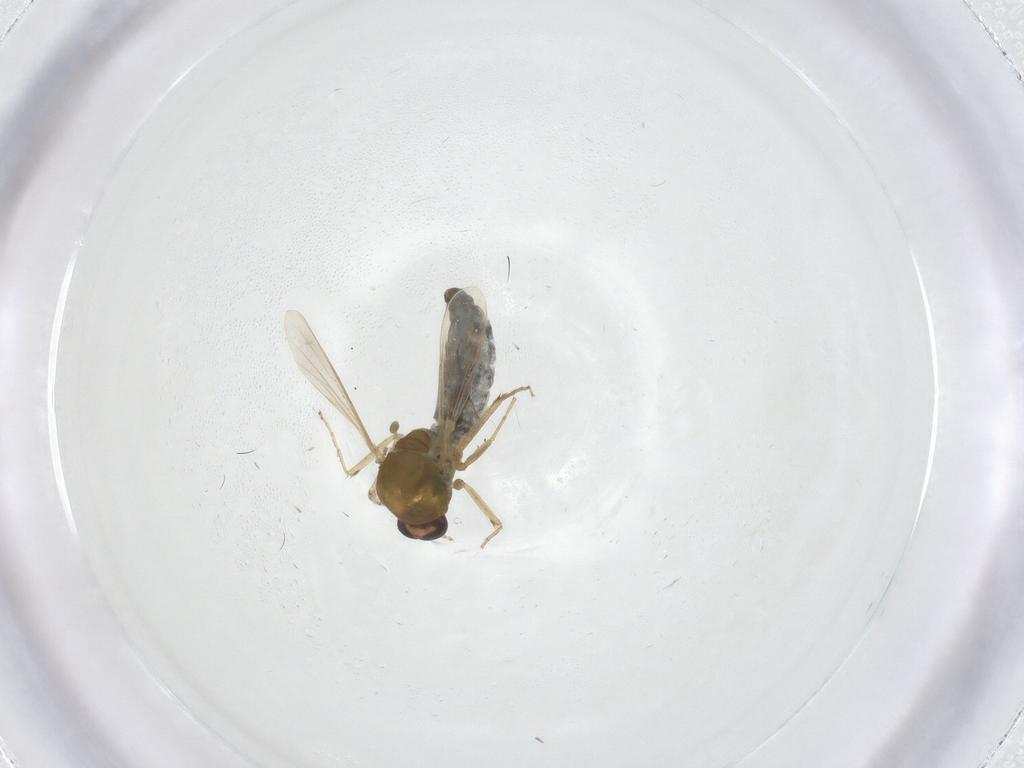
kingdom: Animalia
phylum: Arthropoda
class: Insecta
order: Diptera
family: Ceratopogonidae
